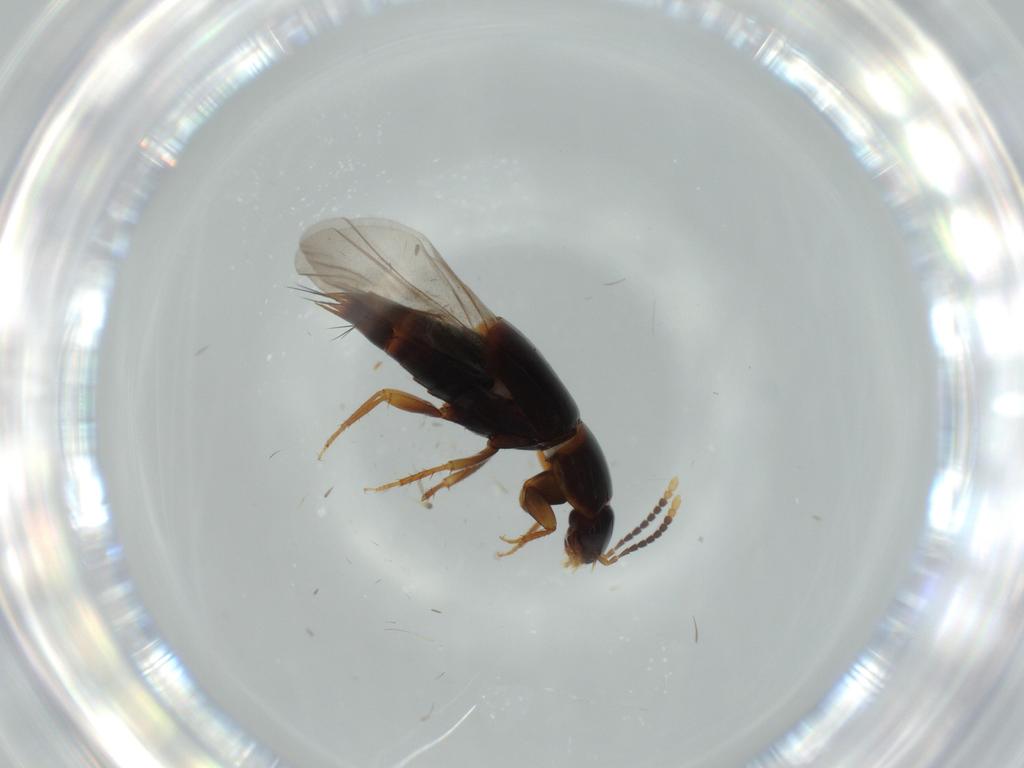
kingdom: Animalia
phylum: Arthropoda
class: Insecta
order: Coleoptera
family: Staphylinidae
